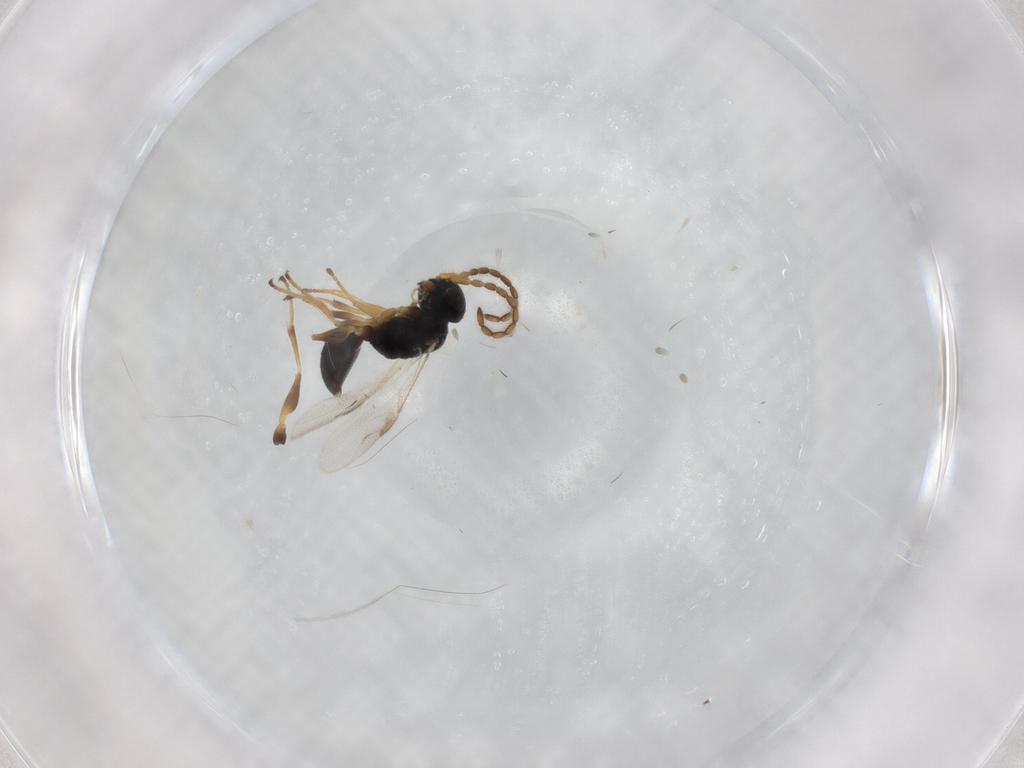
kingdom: Animalia
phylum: Arthropoda
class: Insecta
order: Hymenoptera
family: Dryinidae
